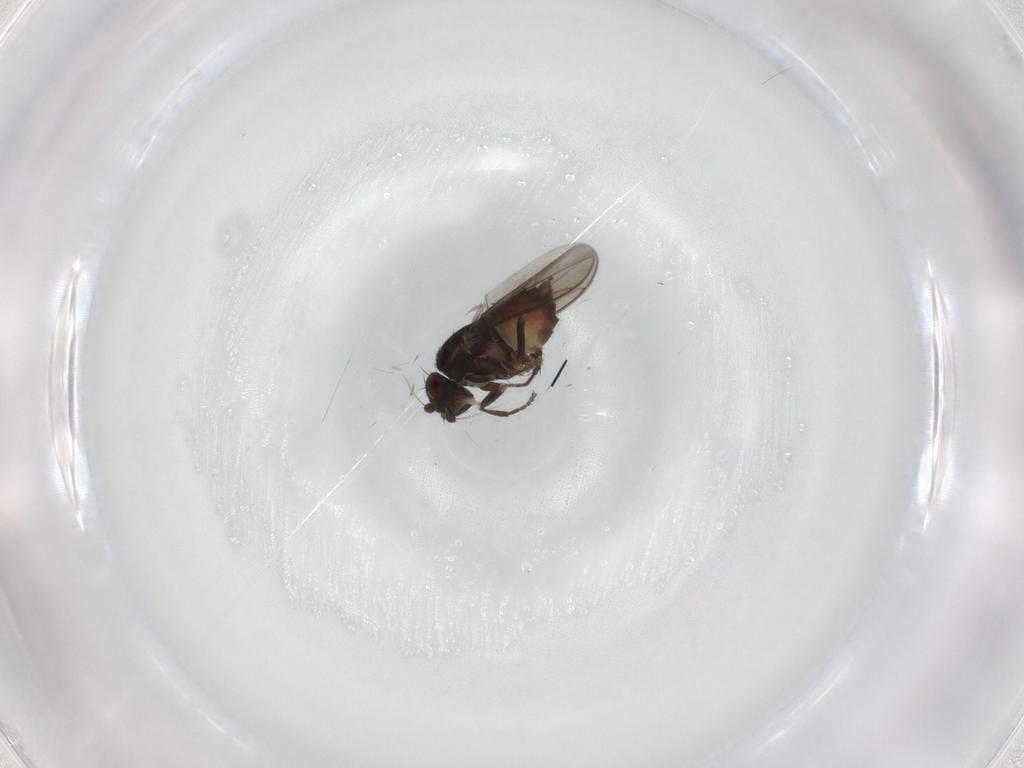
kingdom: Animalia
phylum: Arthropoda
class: Insecta
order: Diptera
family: Sphaeroceridae
